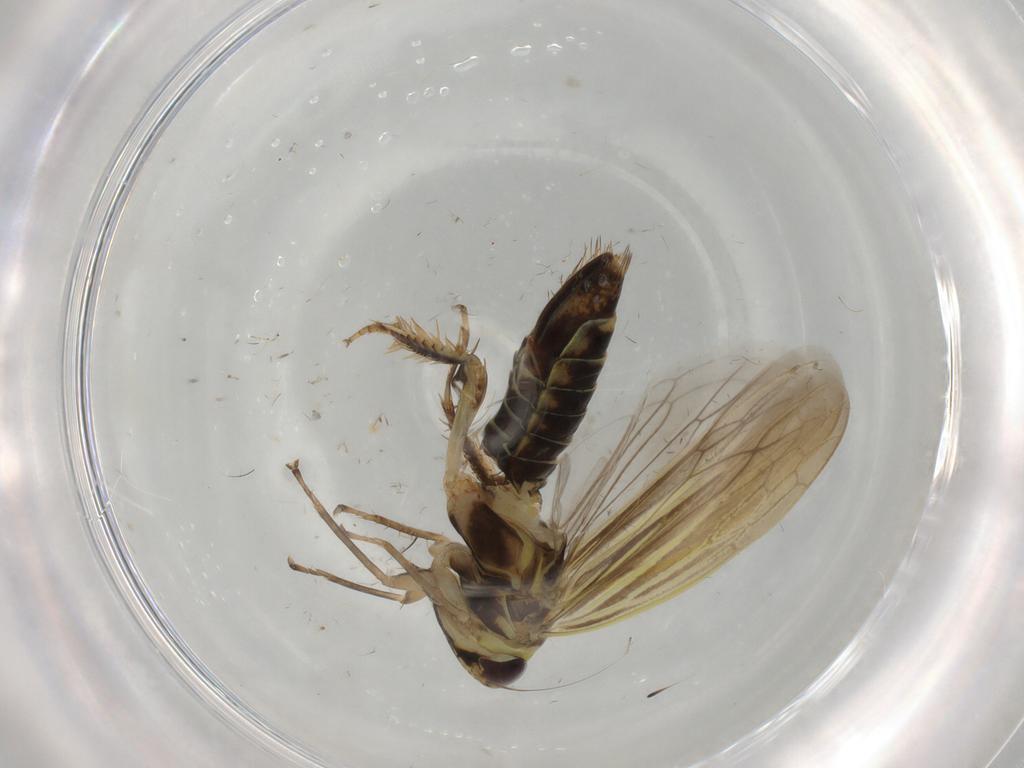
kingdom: Animalia
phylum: Arthropoda
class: Insecta
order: Hemiptera
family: Cicadellidae
